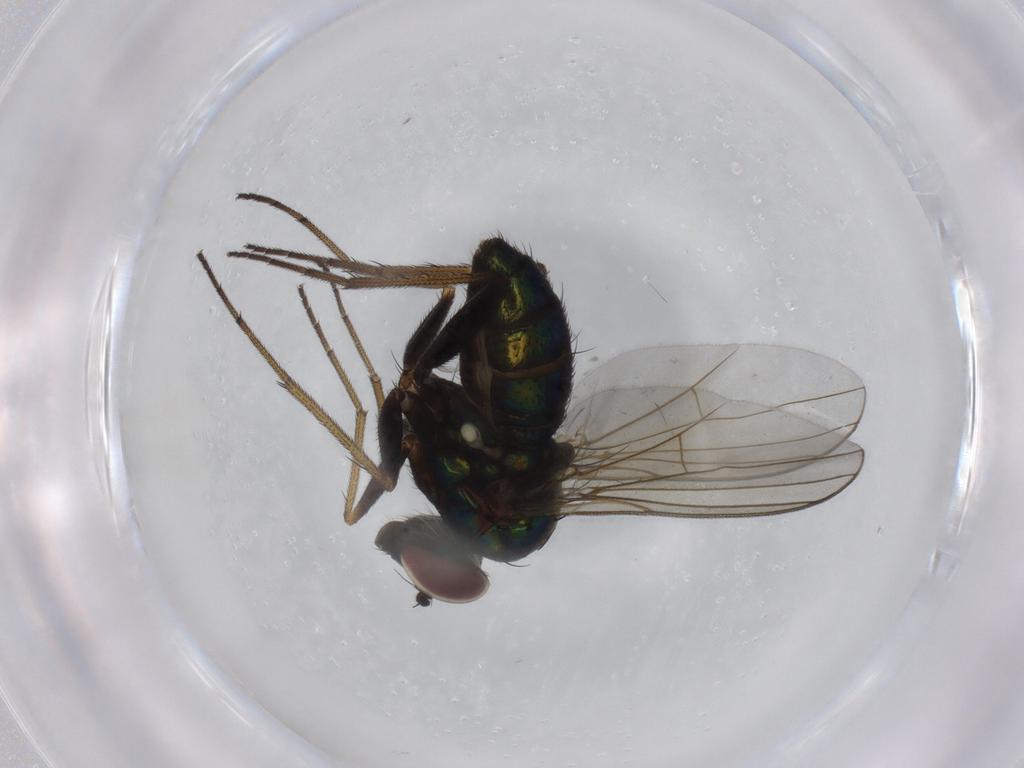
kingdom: Animalia
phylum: Arthropoda
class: Insecta
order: Diptera
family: Dolichopodidae
